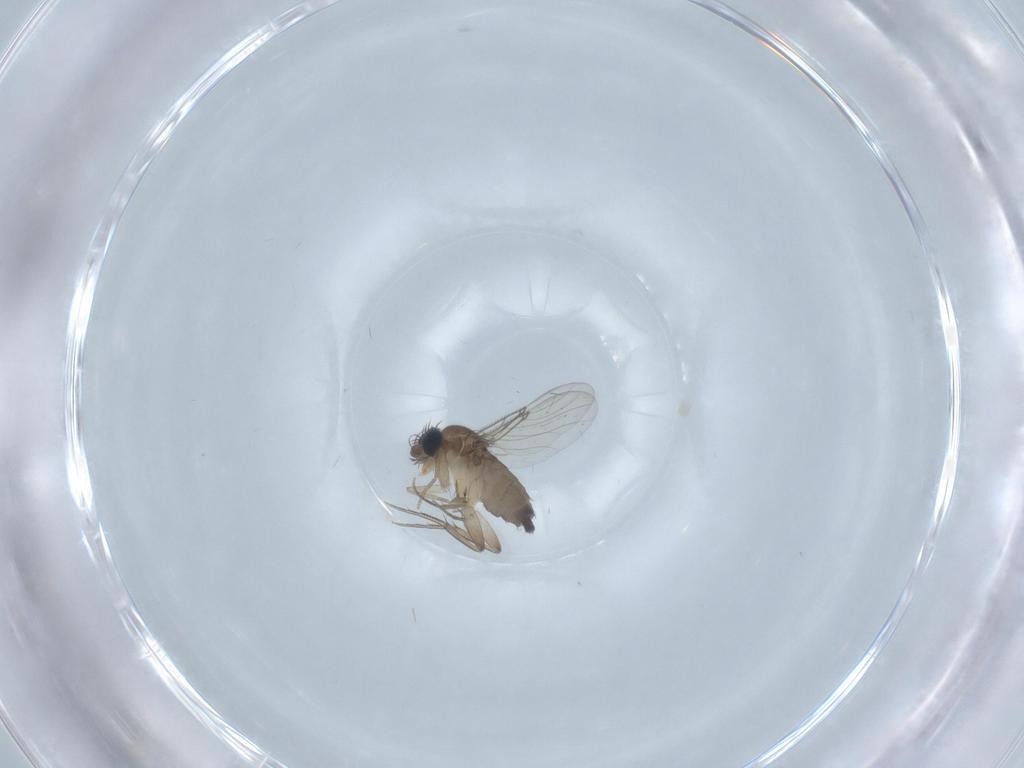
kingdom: Animalia
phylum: Arthropoda
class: Insecta
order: Diptera
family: Phoridae
